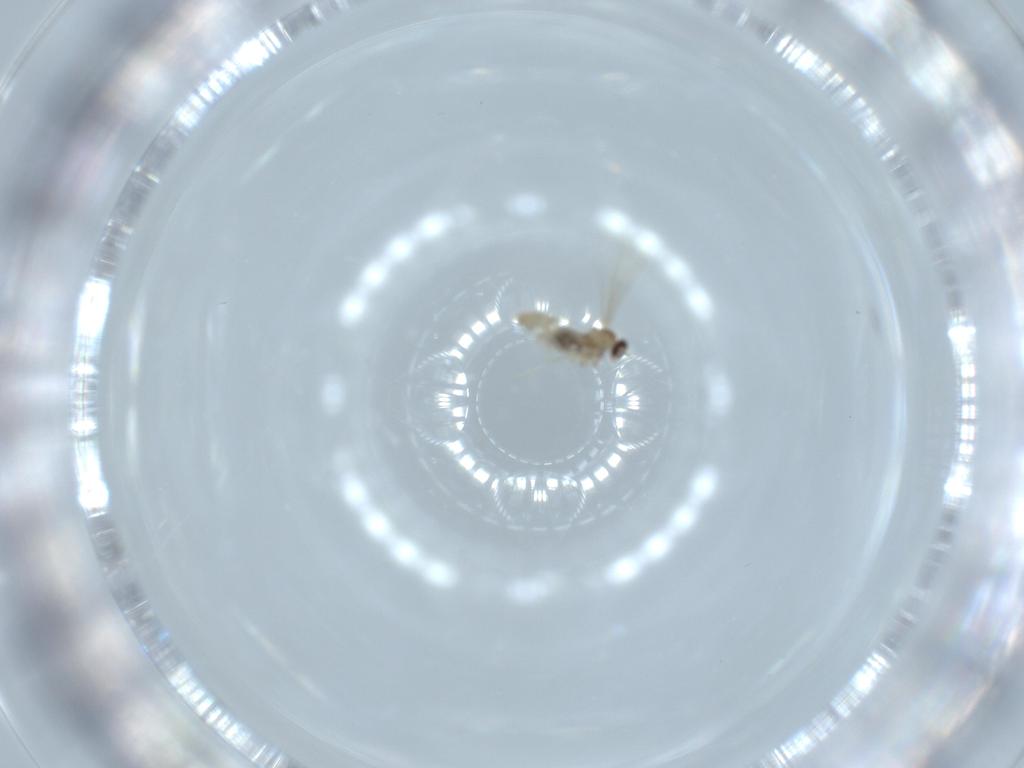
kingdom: Animalia
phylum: Arthropoda
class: Insecta
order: Diptera
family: Cecidomyiidae
